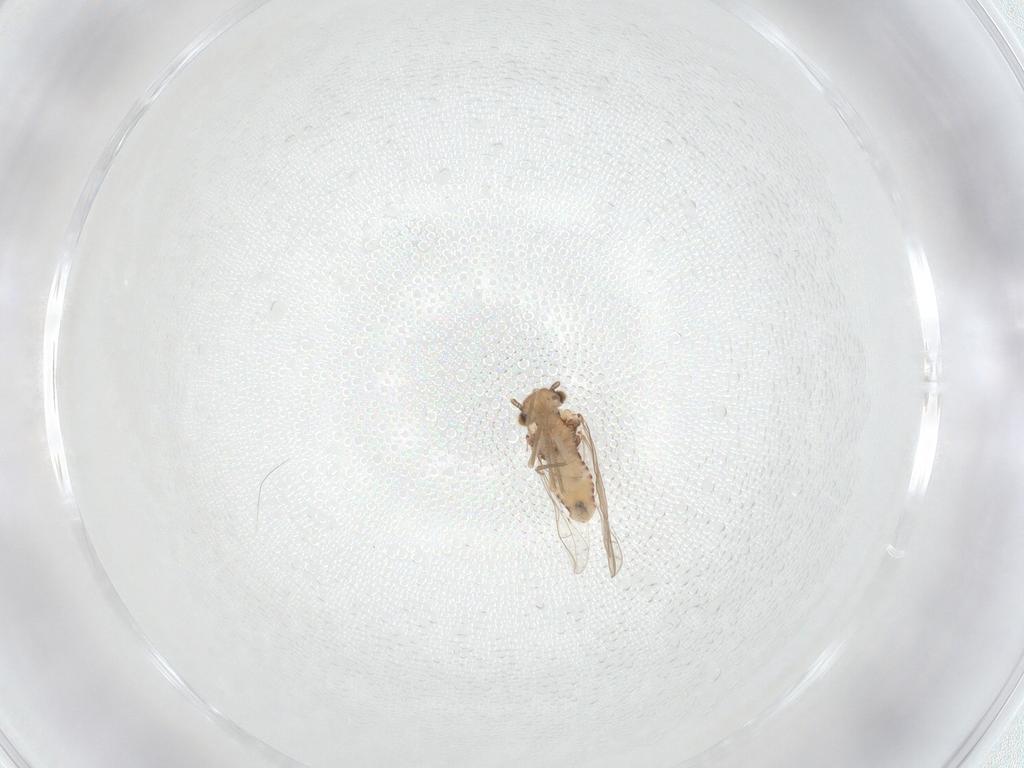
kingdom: Animalia
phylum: Arthropoda
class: Insecta
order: Psocodea
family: Ectopsocidae
